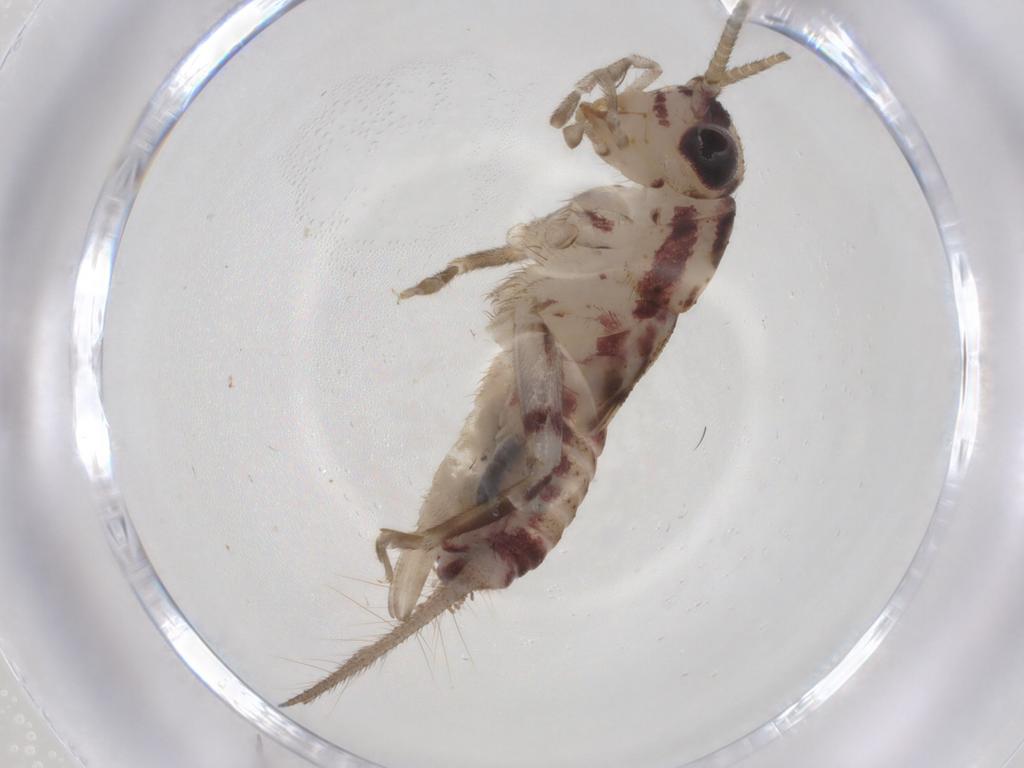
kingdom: Animalia
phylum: Arthropoda
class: Insecta
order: Orthoptera
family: Trigonidiidae
